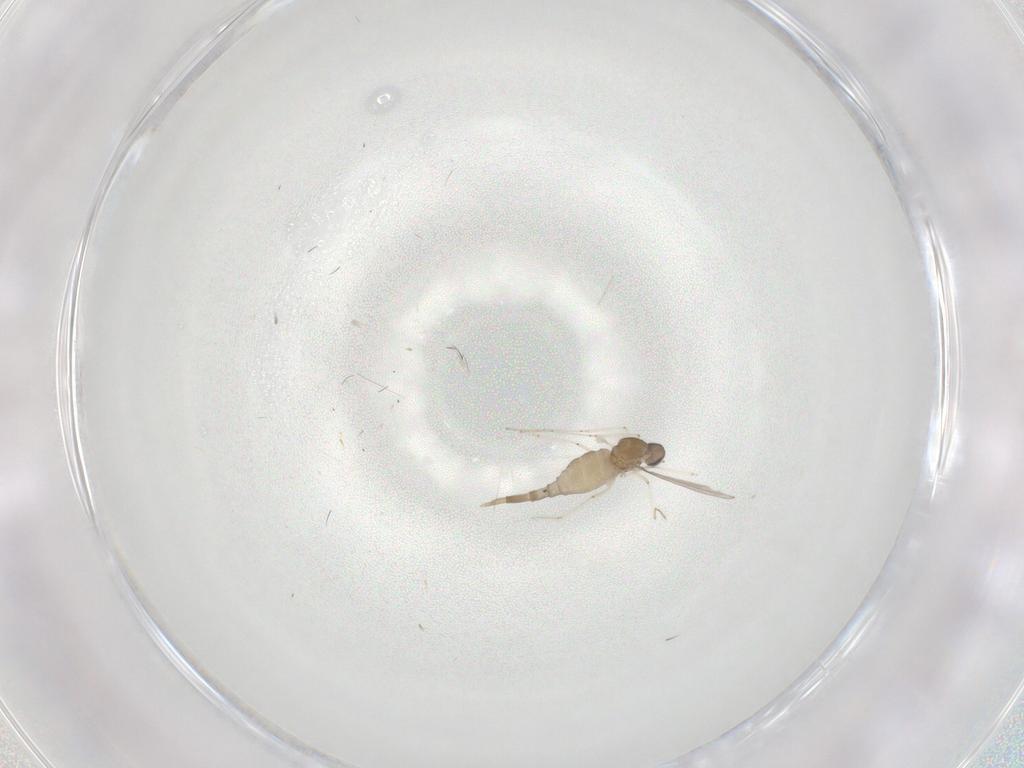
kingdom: Animalia
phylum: Arthropoda
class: Insecta
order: Diptera
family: Cecidomyiidae
